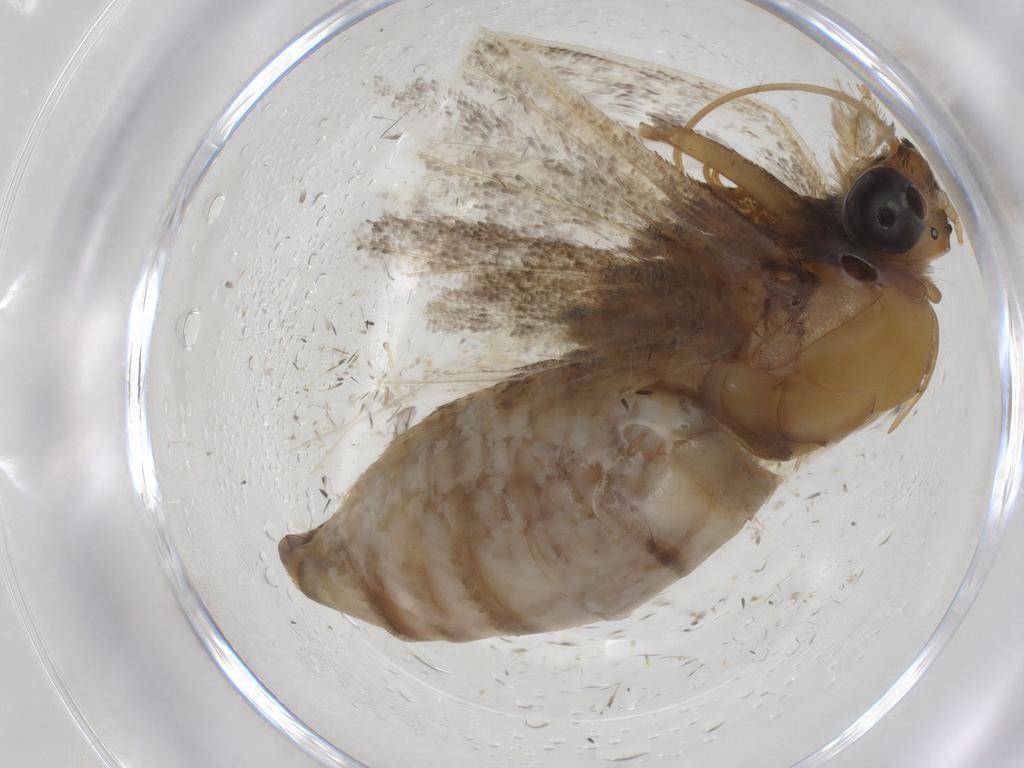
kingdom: Animalia
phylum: Arthropoda
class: Insecta
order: Lepidoptera
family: Crambidae
